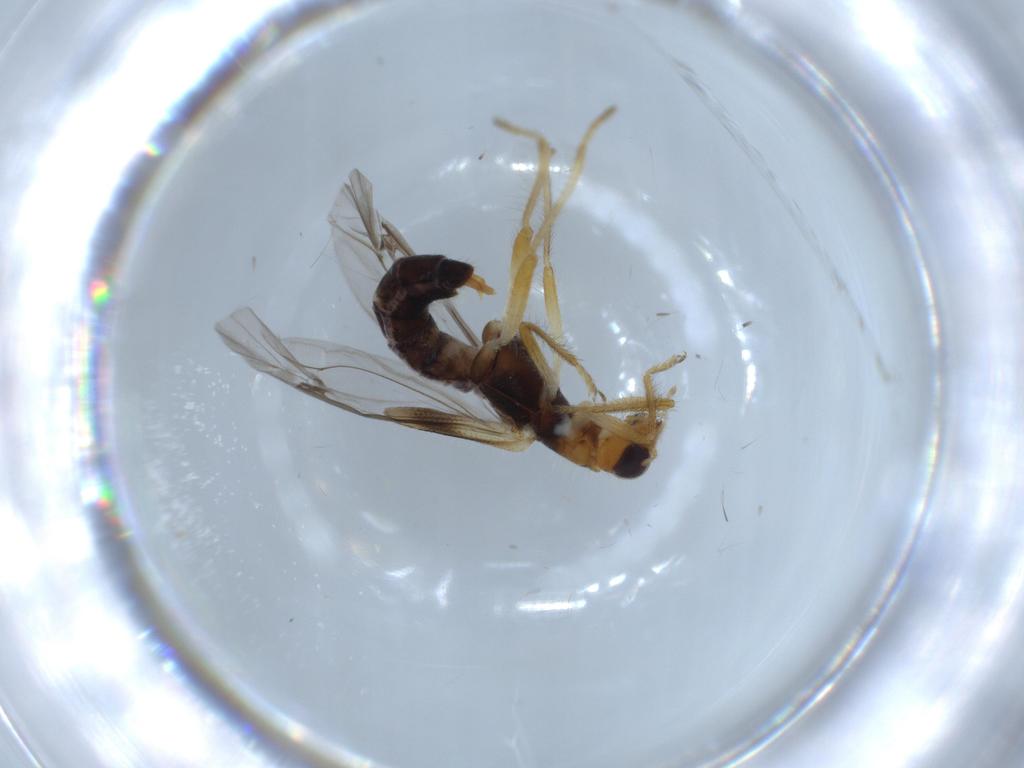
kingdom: Animalia
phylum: Arthropoda
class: Insecta
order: Coleoptera
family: Cleridae
